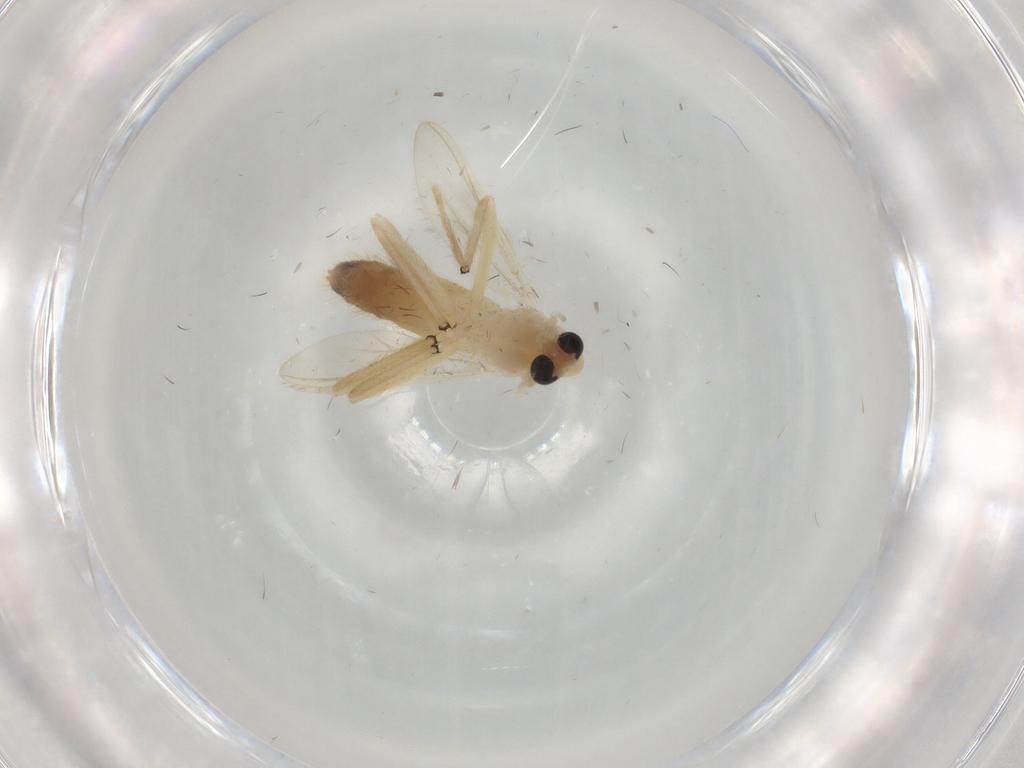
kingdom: Animalia
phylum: Arthropoda
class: Insecta
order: Diptera
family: Chironomidae
